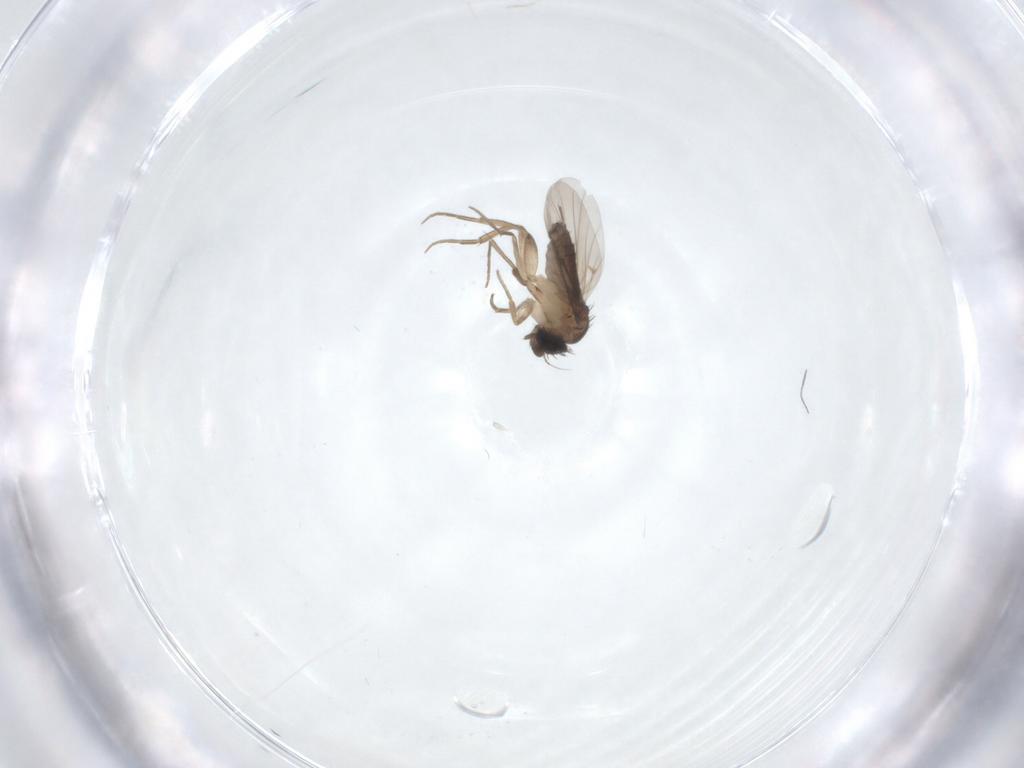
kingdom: Animalia
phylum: Arthropoda
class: Insecta
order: Diptera
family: Phoridae
